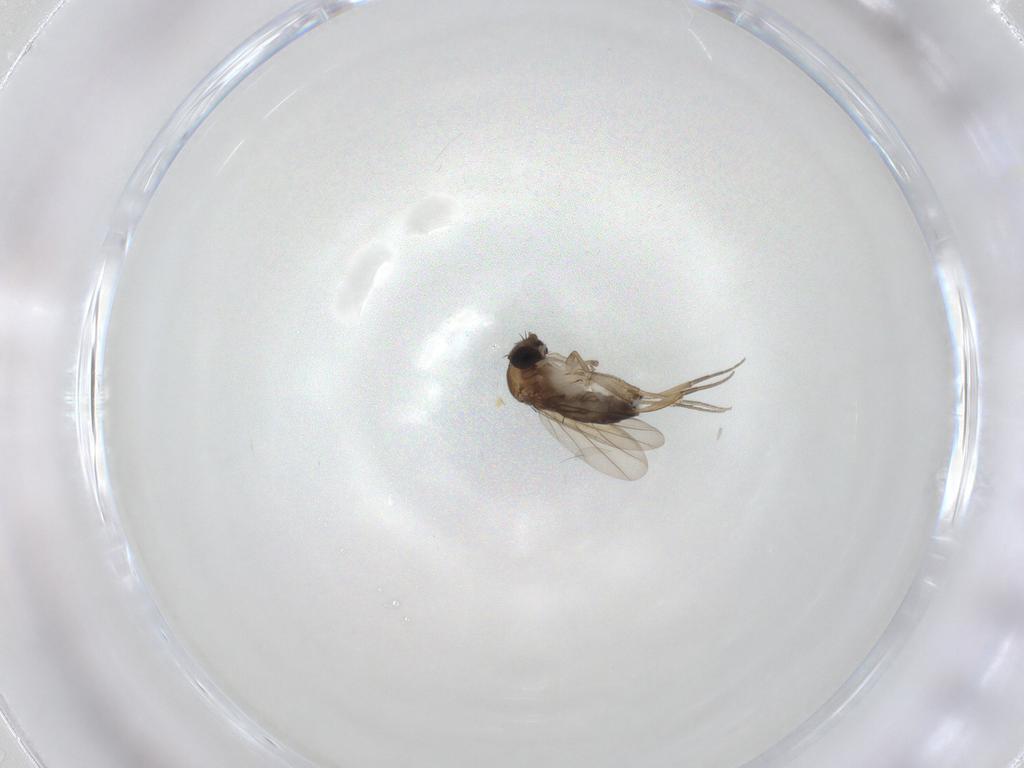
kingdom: Animalia
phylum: Arthropoda
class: Insecta
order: Diptera
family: Phoridae
